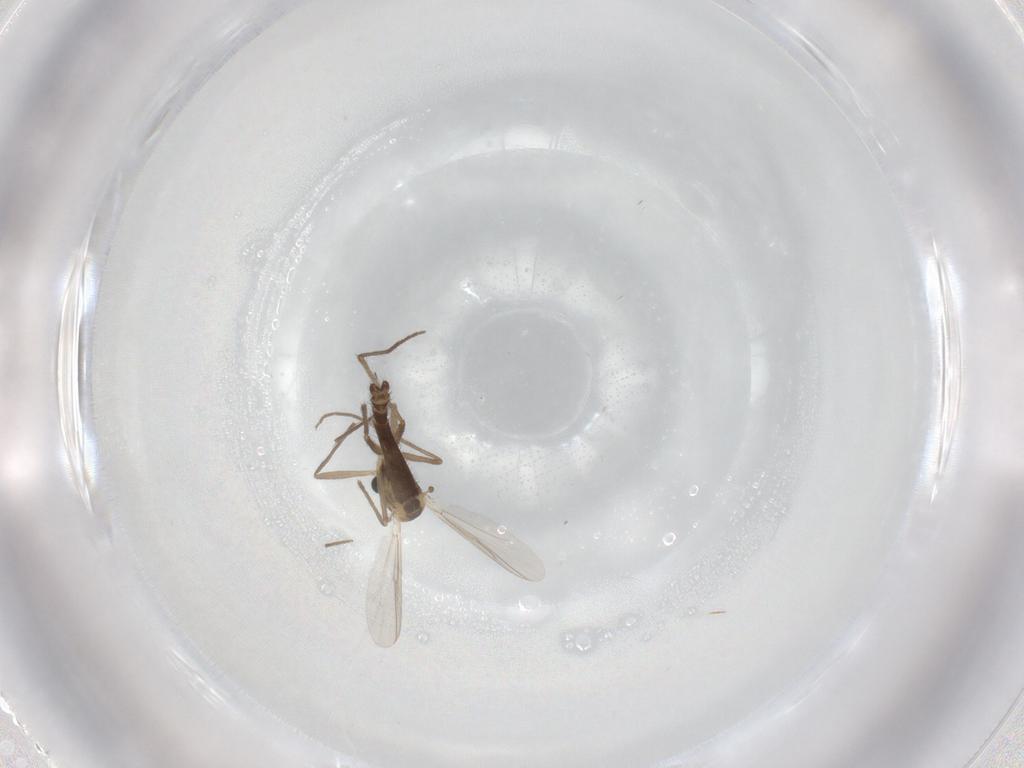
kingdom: Animalia
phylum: Arthropoda
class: Insecta
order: Diptera
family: Chironomidae
